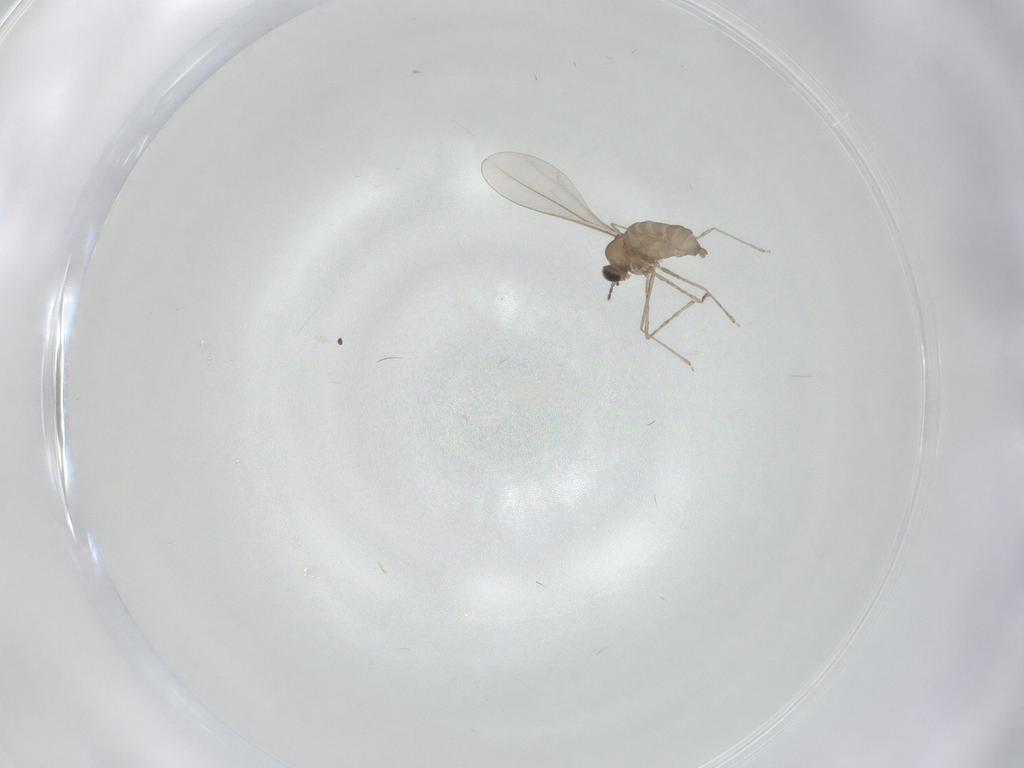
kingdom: Animalia
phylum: Arthropoda
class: Insecta
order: Diptera
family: Cecidomyiidae
